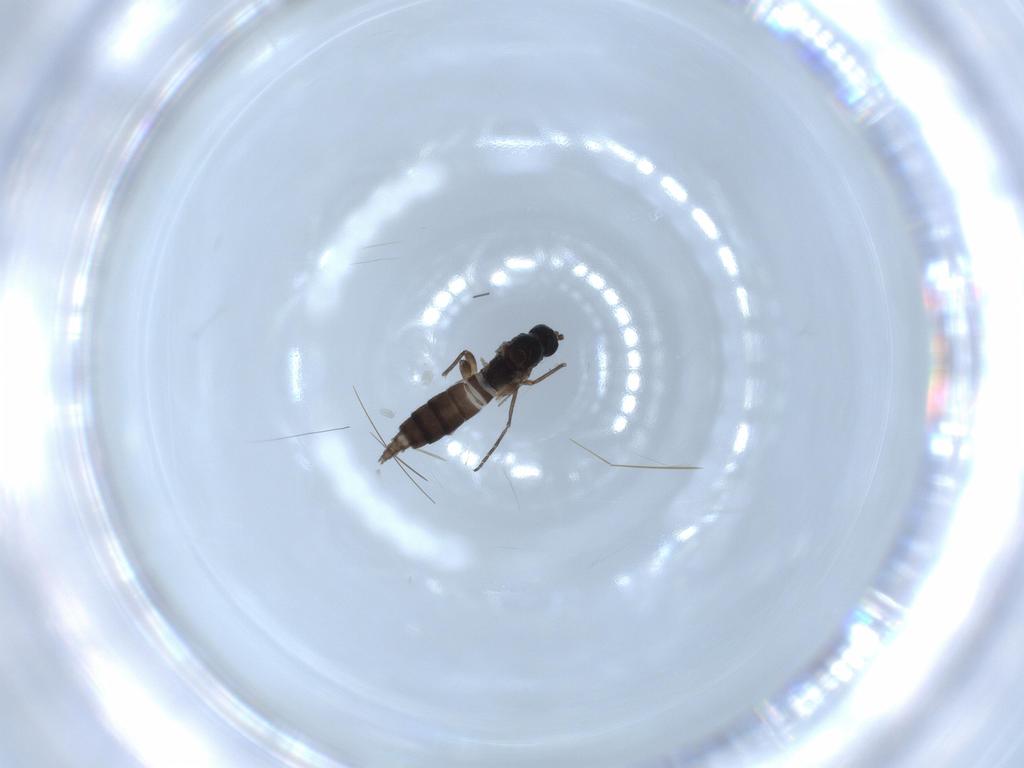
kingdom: Animalia
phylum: Arthropoda
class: Insecta
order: Diptera
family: Sciaridae
